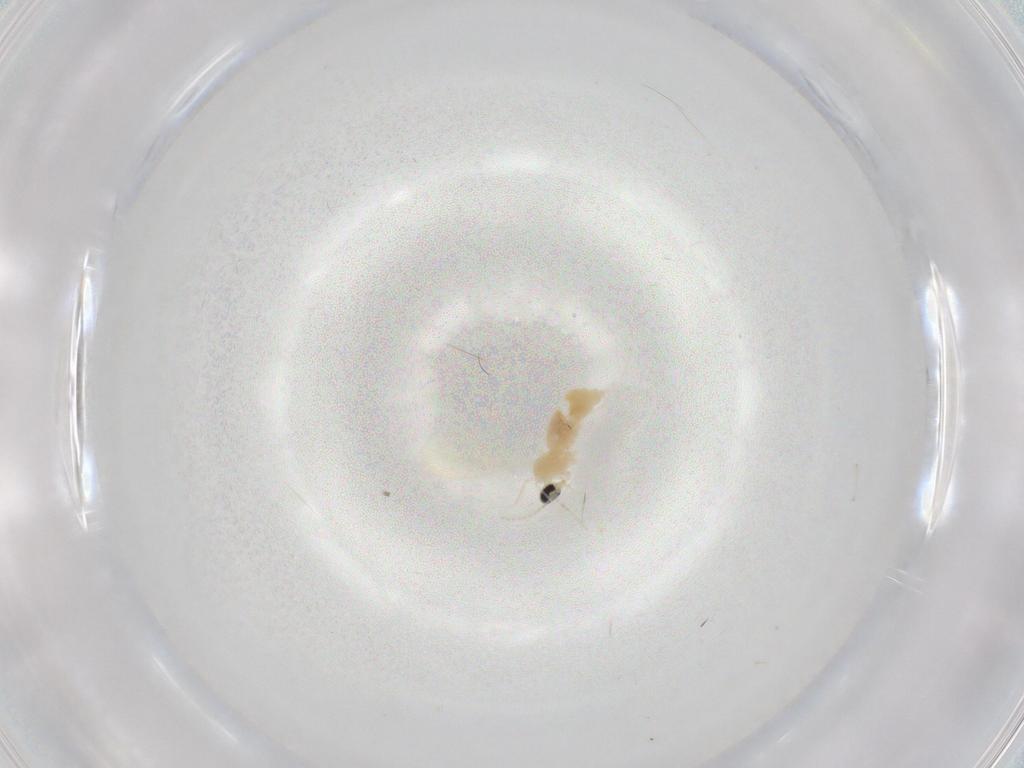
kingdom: Animalia
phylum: Arthropoda
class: Insecta
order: Diptera
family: Cecidomyiidae
